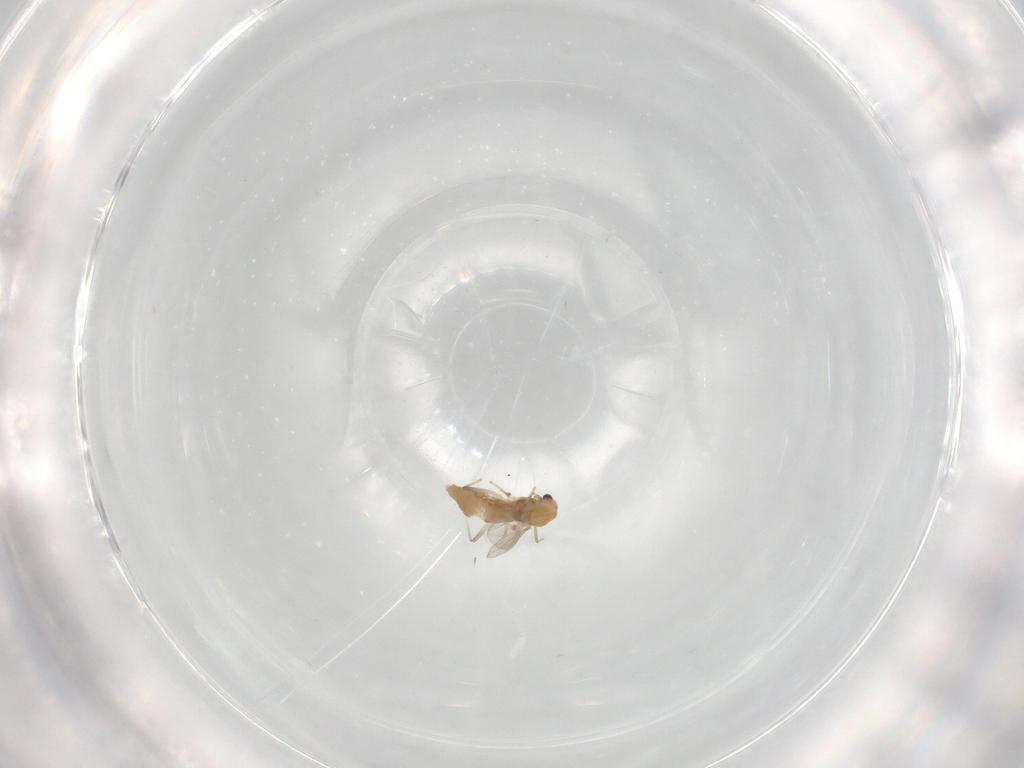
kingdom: Animalia
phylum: Arthropoda
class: Insecta
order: Diptera
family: Chironomidae
